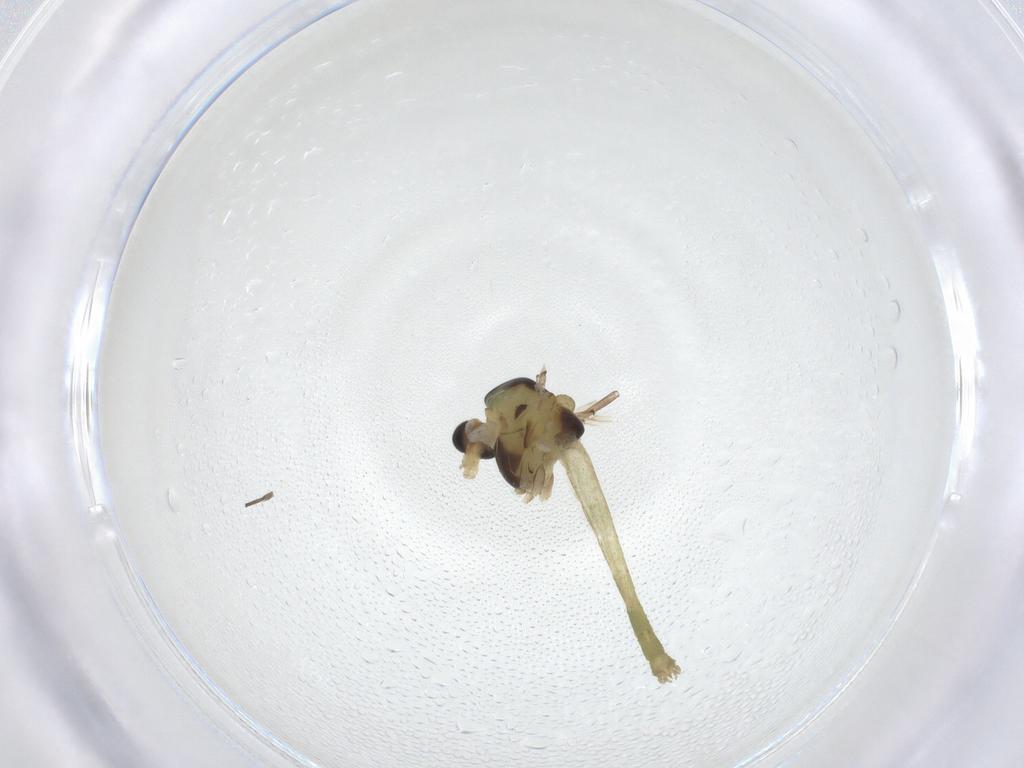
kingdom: Animalia
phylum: Arthropoda
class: Insecta
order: Diptera
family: Chironomidae
